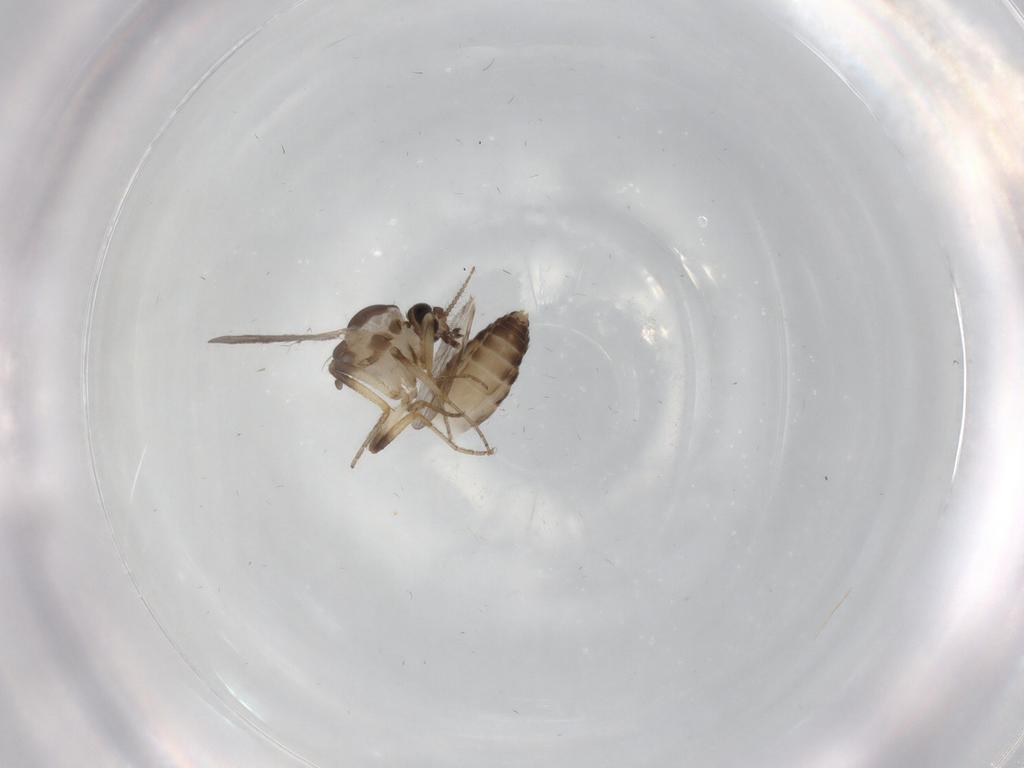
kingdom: Animalia
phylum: Arthropoda
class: Insecta
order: Diptera
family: Ceratopogonidae
